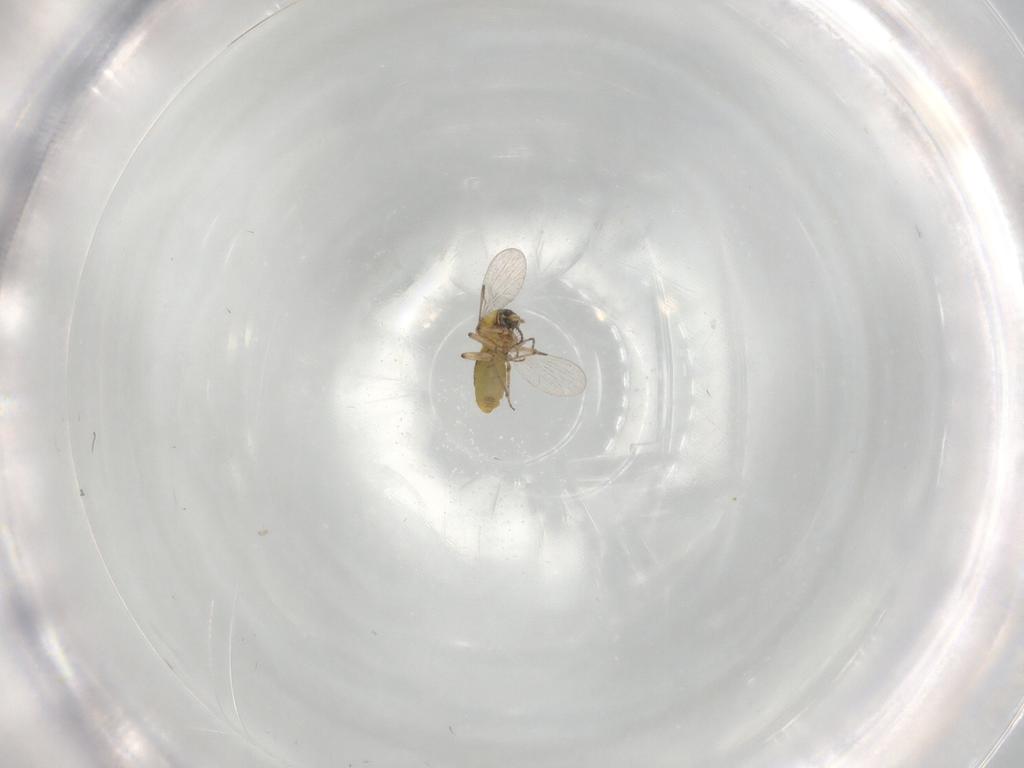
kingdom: Animalia
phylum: Arthropoda
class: Insecta
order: Diptera
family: Ceratopogonidae
